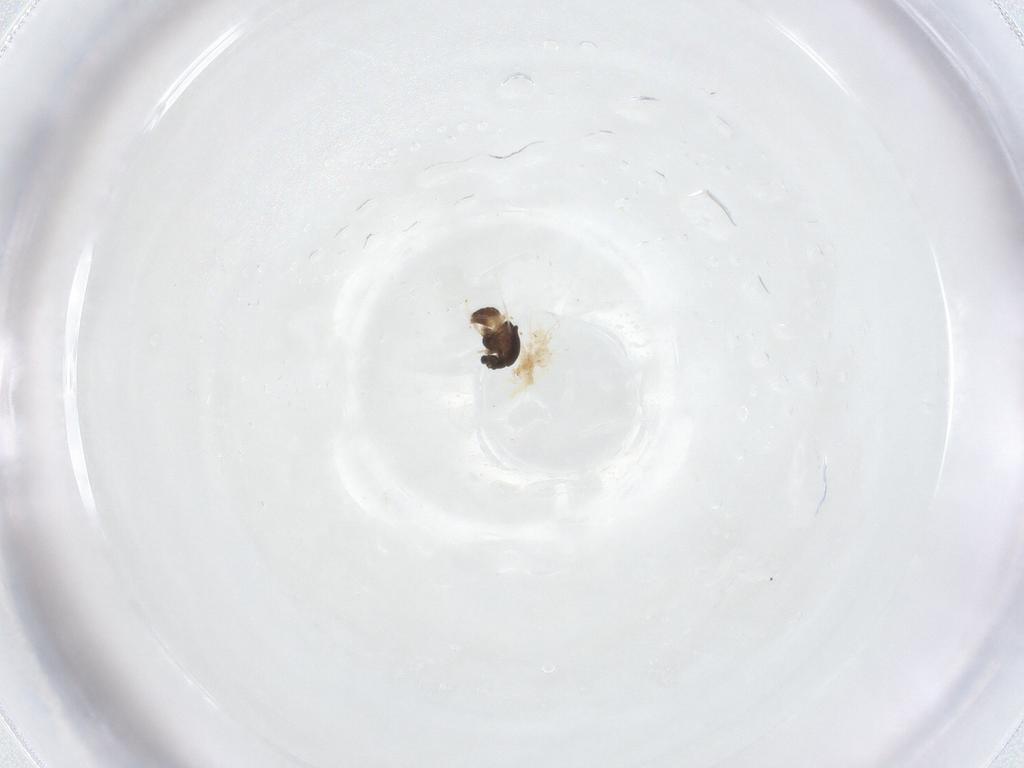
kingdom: Animalia
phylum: Arthropoda
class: Insecta
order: Diptera
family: Chironomidae
